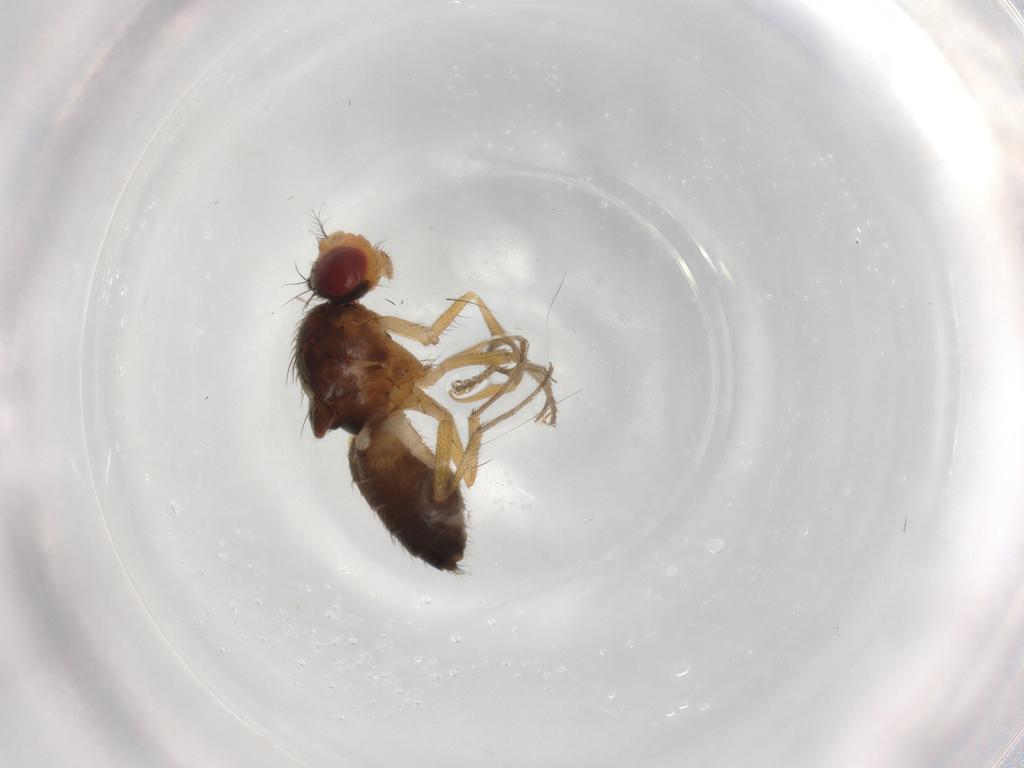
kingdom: Animalia
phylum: Arthropoda
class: Insecta
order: Diptera
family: Drosophilidae
